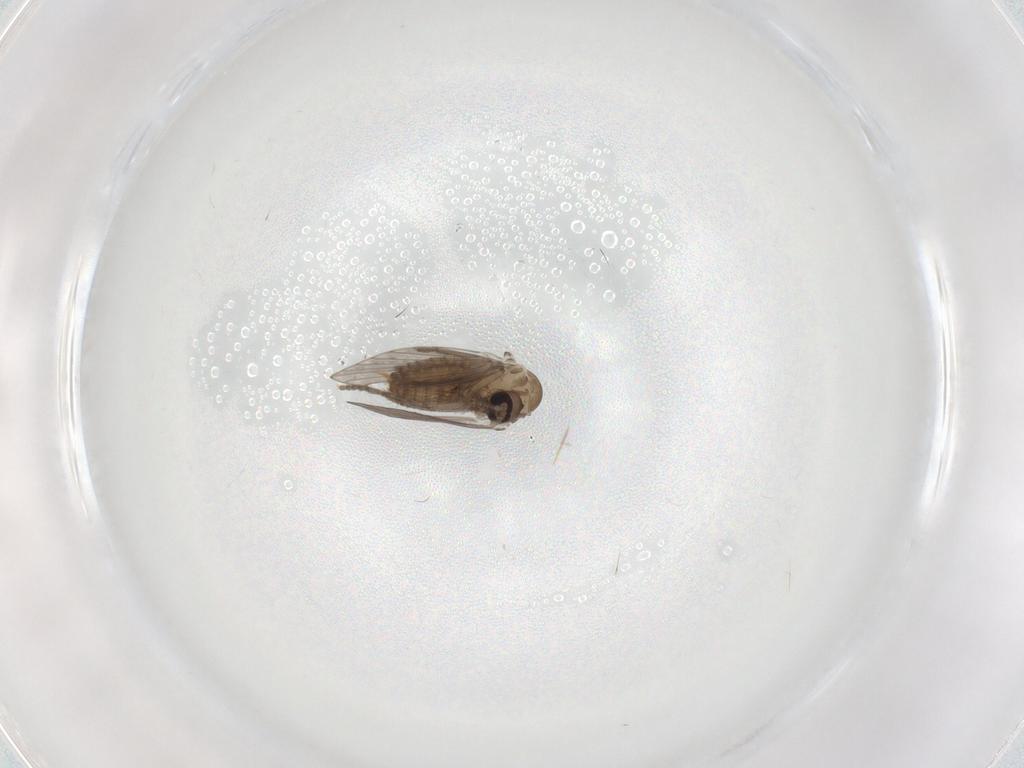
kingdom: Animalia
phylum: Arthropoda
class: Insecta
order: Diptera
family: Psychodidae
